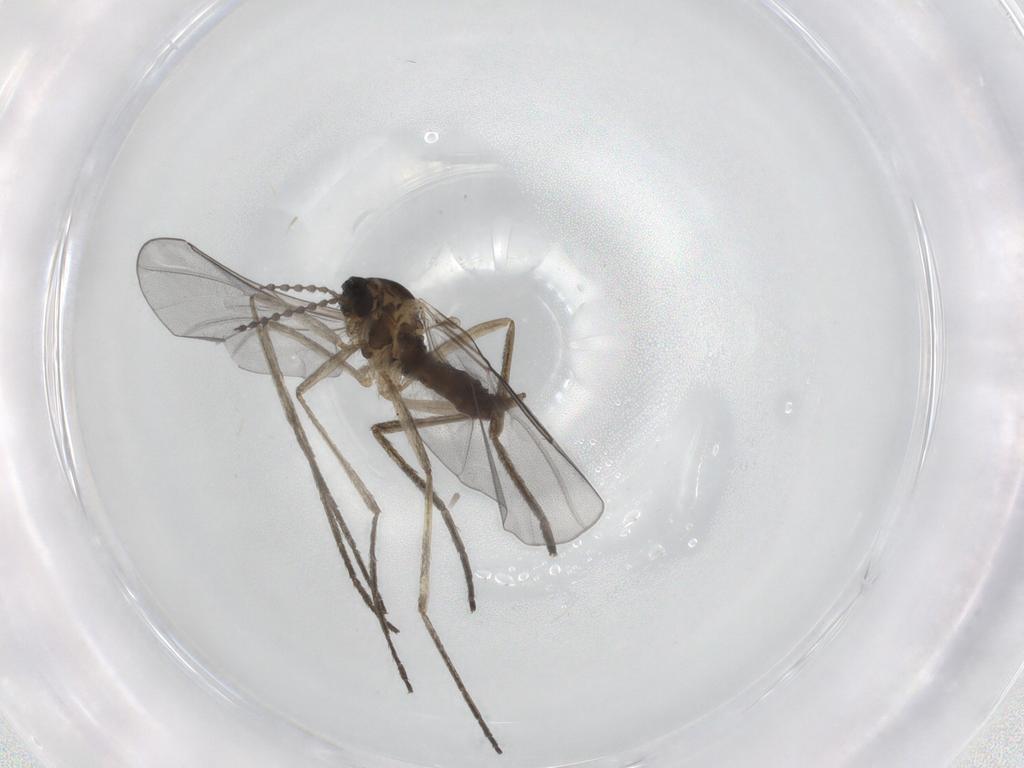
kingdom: Animalia
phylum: Arthropoda
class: Insecta
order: Diptera
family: Cecidomyiidae
